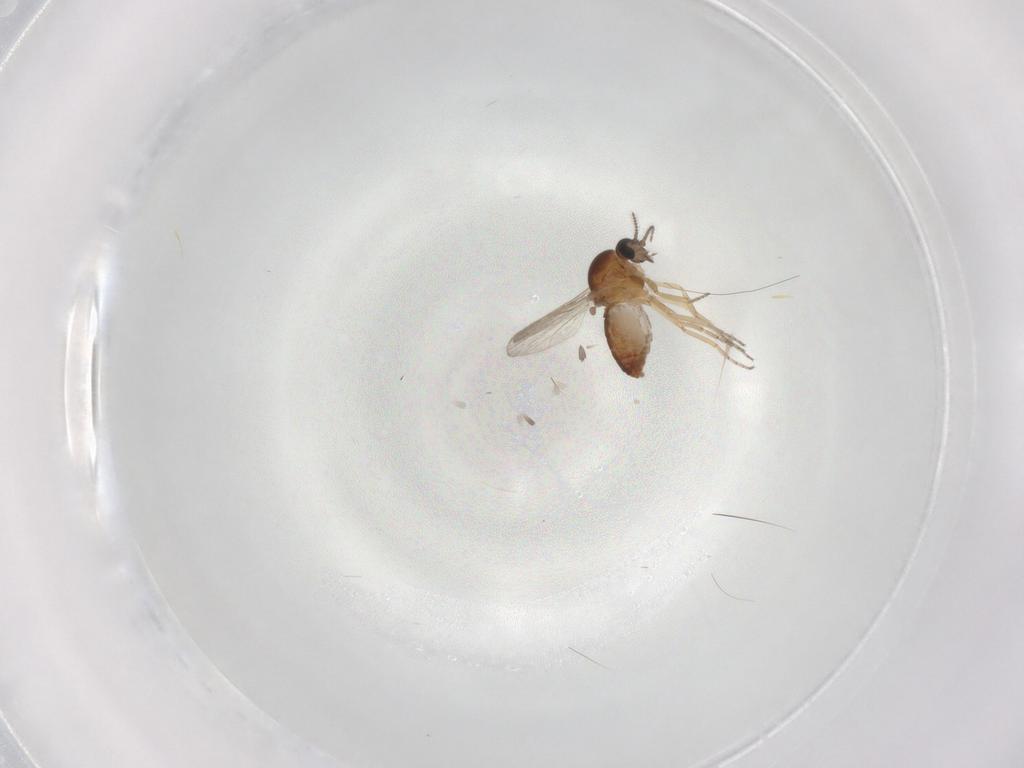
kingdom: Animalia
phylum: Arthropoda
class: Insecta
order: Diptera
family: Ceratopogonidae
